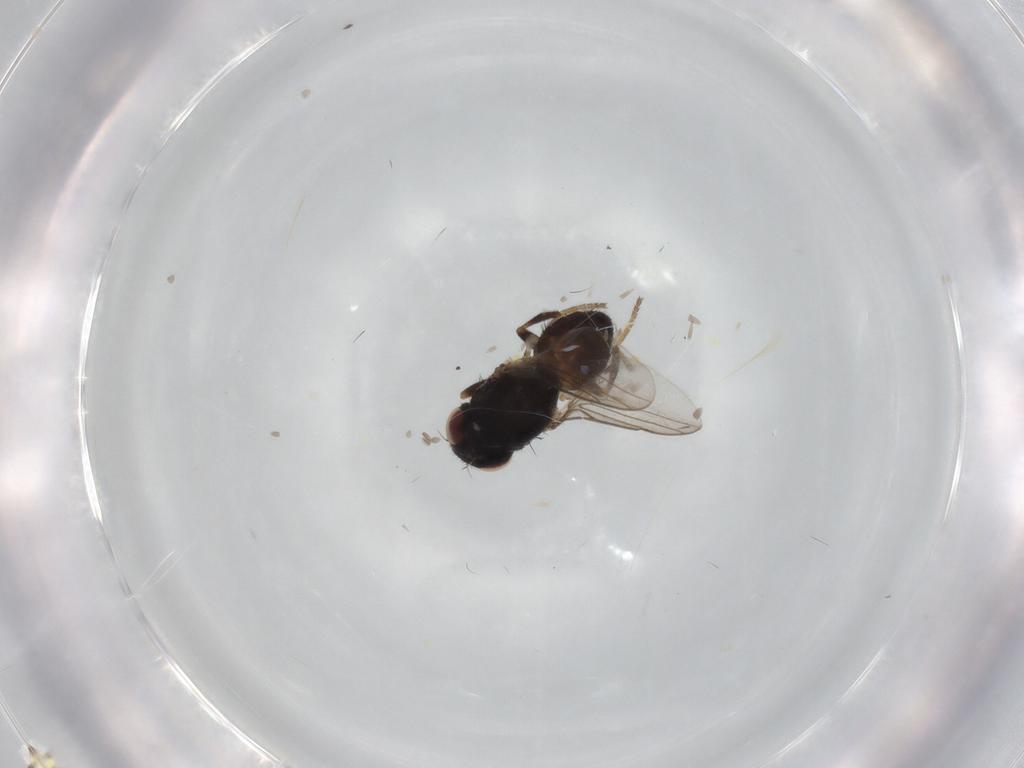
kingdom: Animalia
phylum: Arthropoda
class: Insecta
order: Diptera
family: Chloropidae
